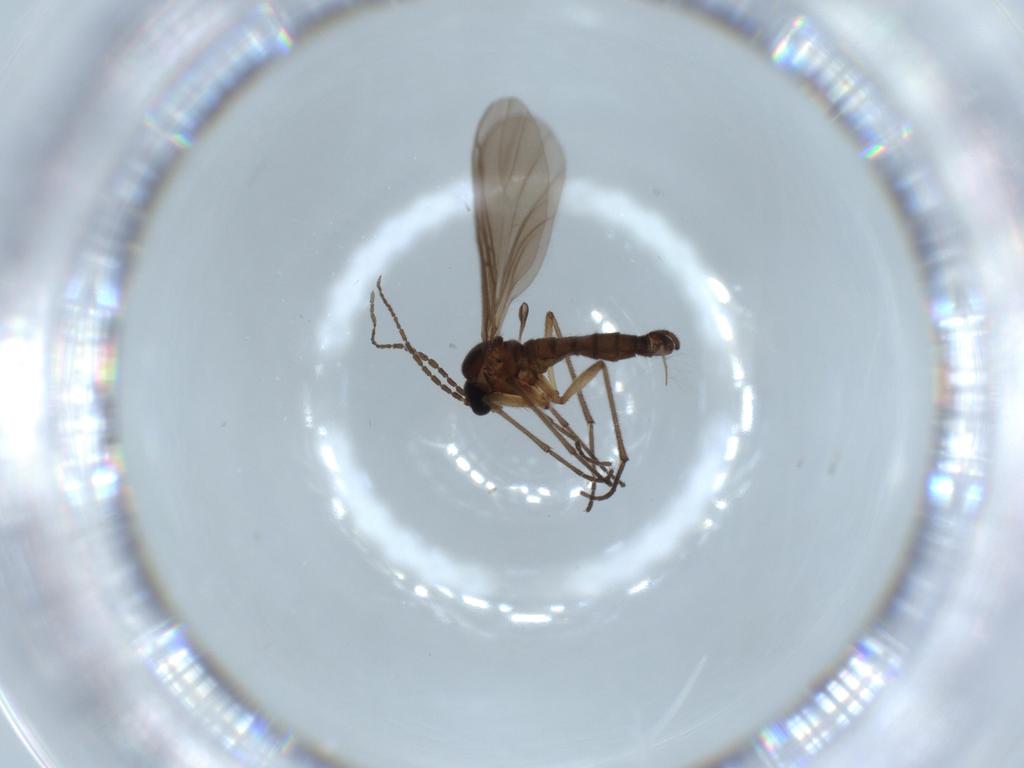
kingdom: Animalia
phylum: Arthropoda
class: Insecta
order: Diptera
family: Chironomidae
